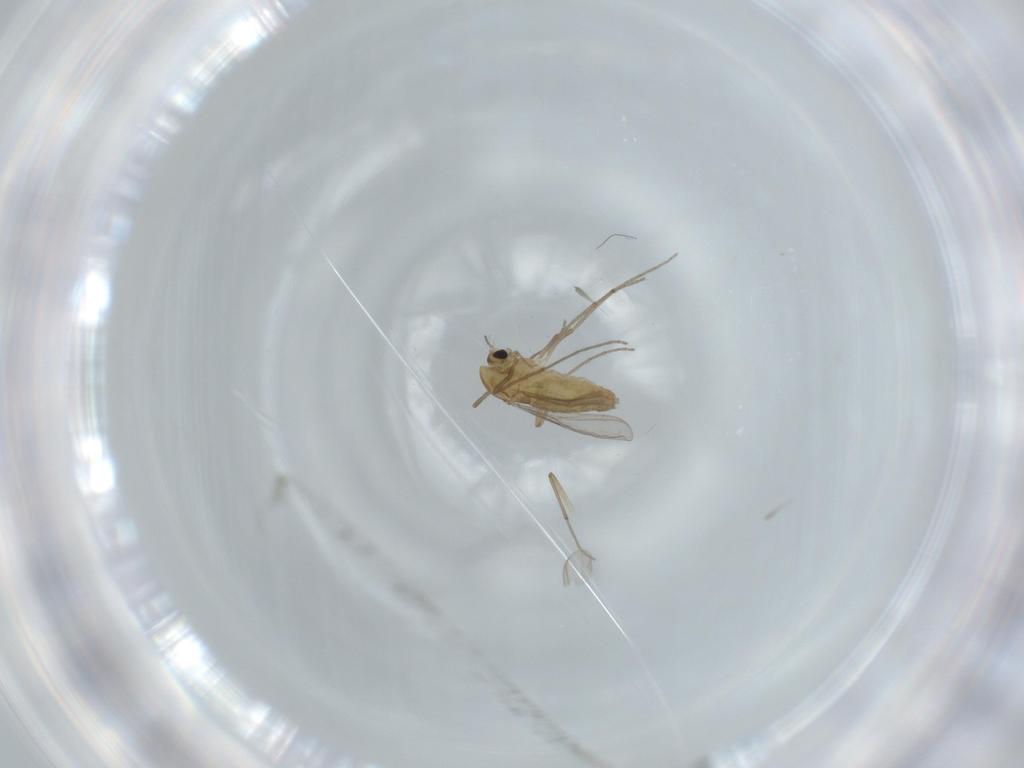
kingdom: Animalia
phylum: Arthropoda
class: Insecta
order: Diptera
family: Chironomidae
